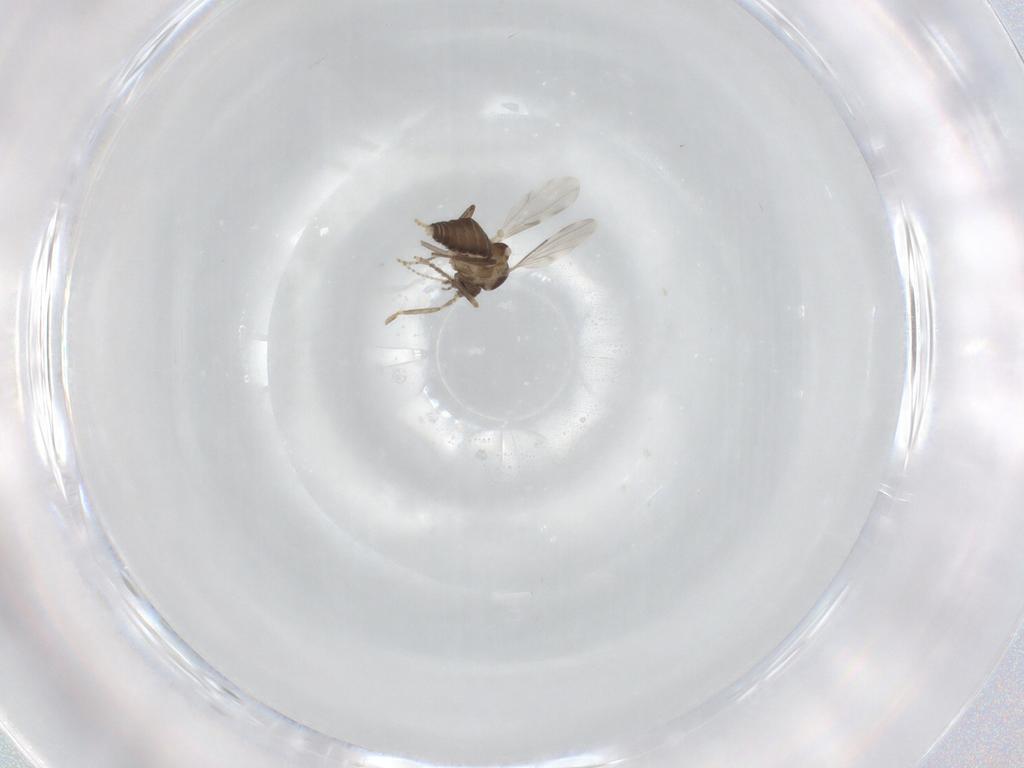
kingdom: Animalia
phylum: Arthropoda
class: Insecta
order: Diptera
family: Ceratopogonidae
